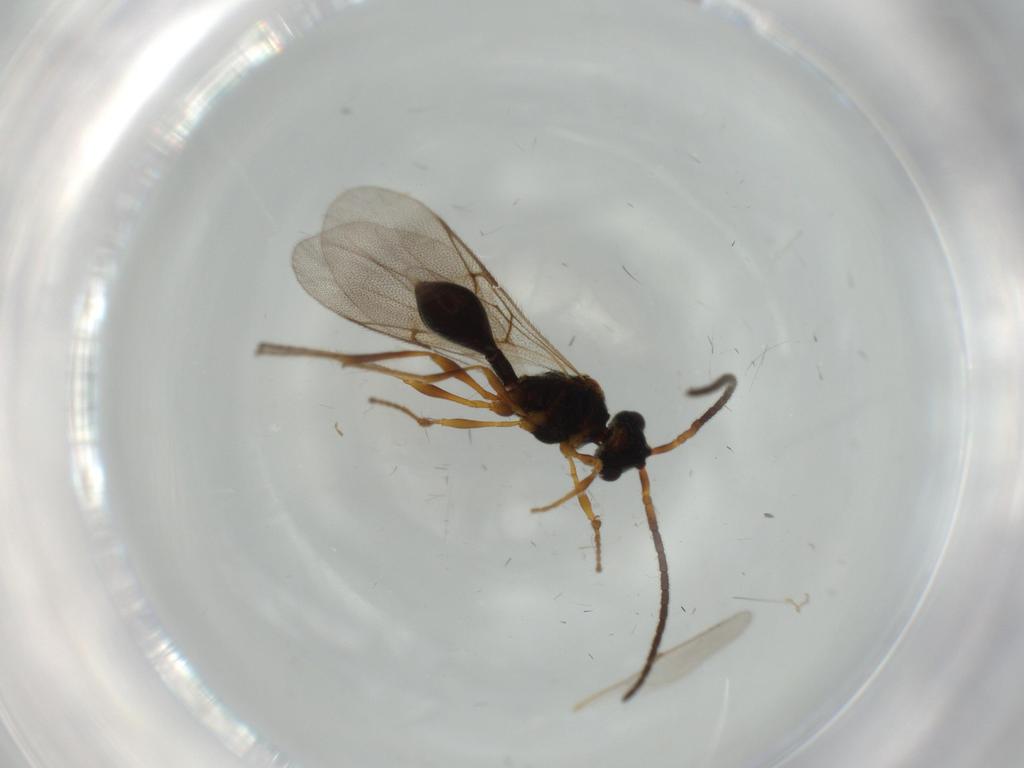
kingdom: Animalia
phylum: Arthropoda
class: Insecta
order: Hymenoptera
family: Diapriidae
